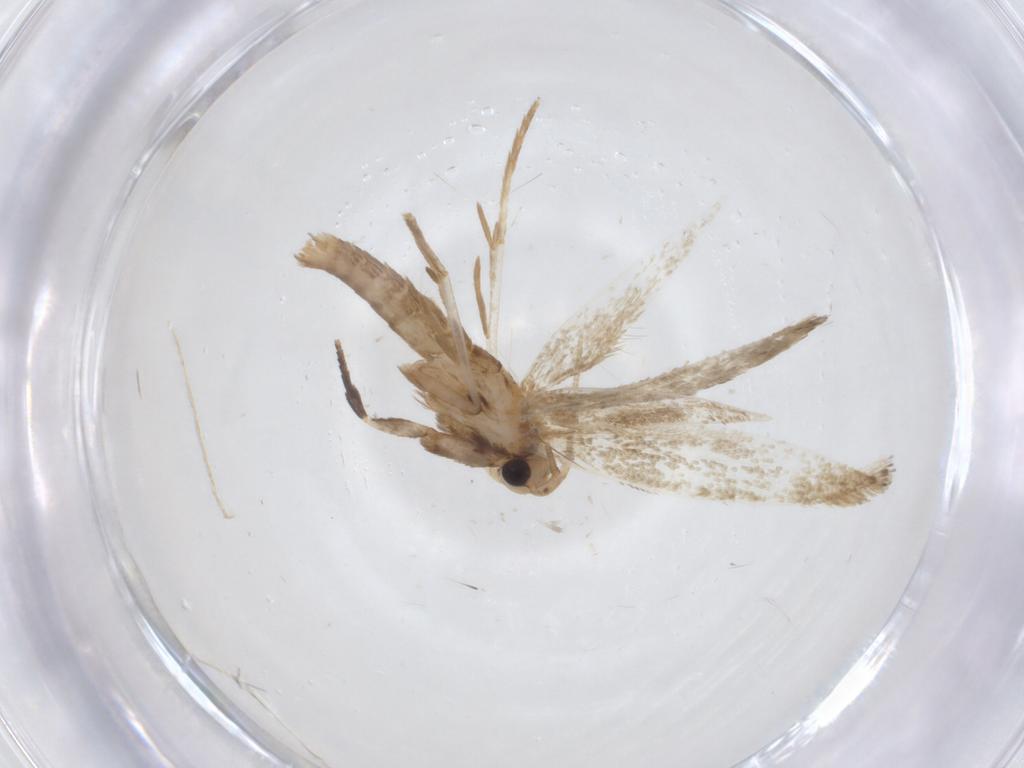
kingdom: Animalia
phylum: Arthropoda
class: Insecta
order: Lepidoptera
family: Tineidae
